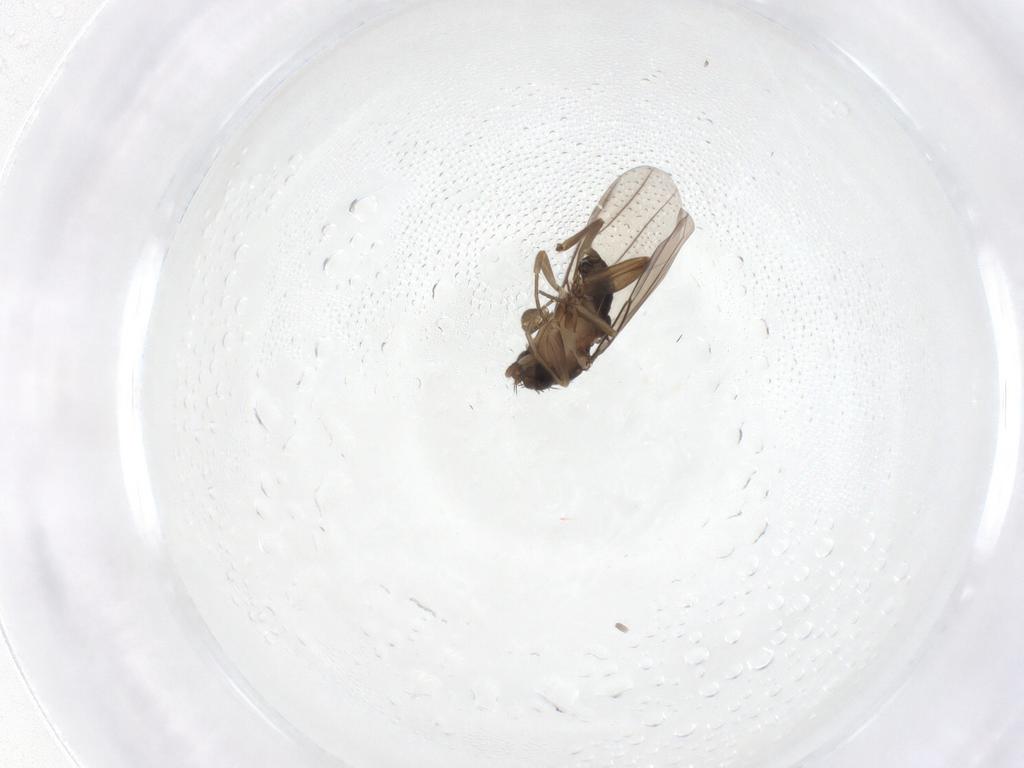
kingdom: Animalia
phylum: Arthropoda
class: Insecta
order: Diptera
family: Phoridae
